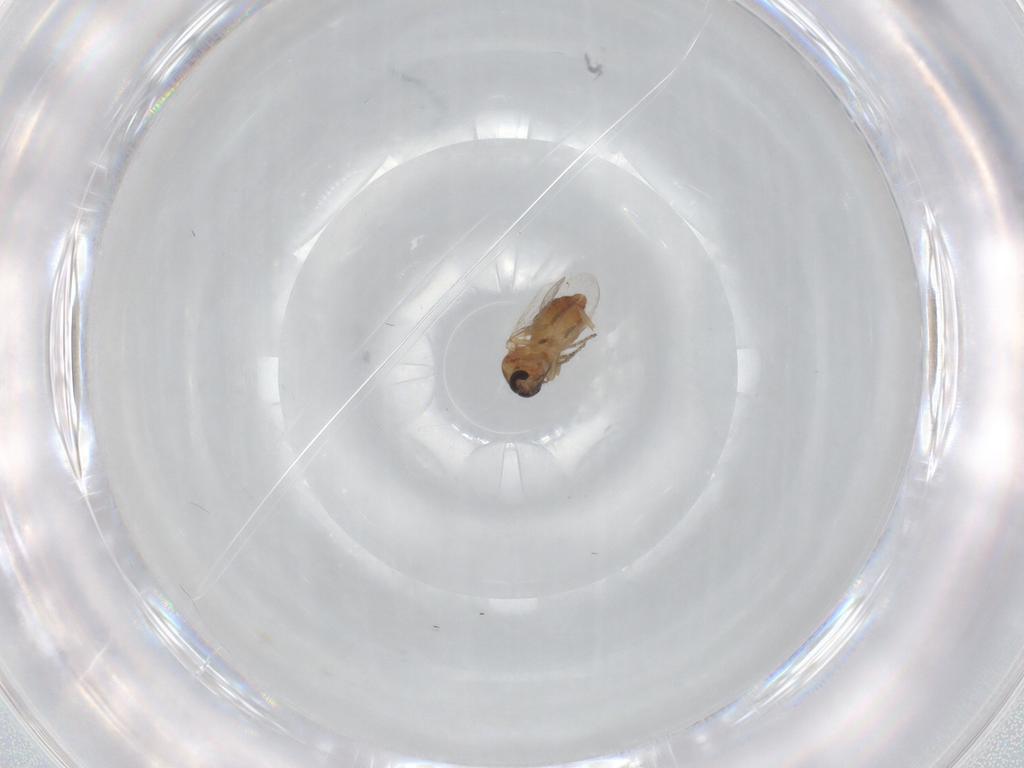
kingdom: Animalia
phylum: Arthropoda
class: Insecta
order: Diptera
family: Ceratopogonidae
